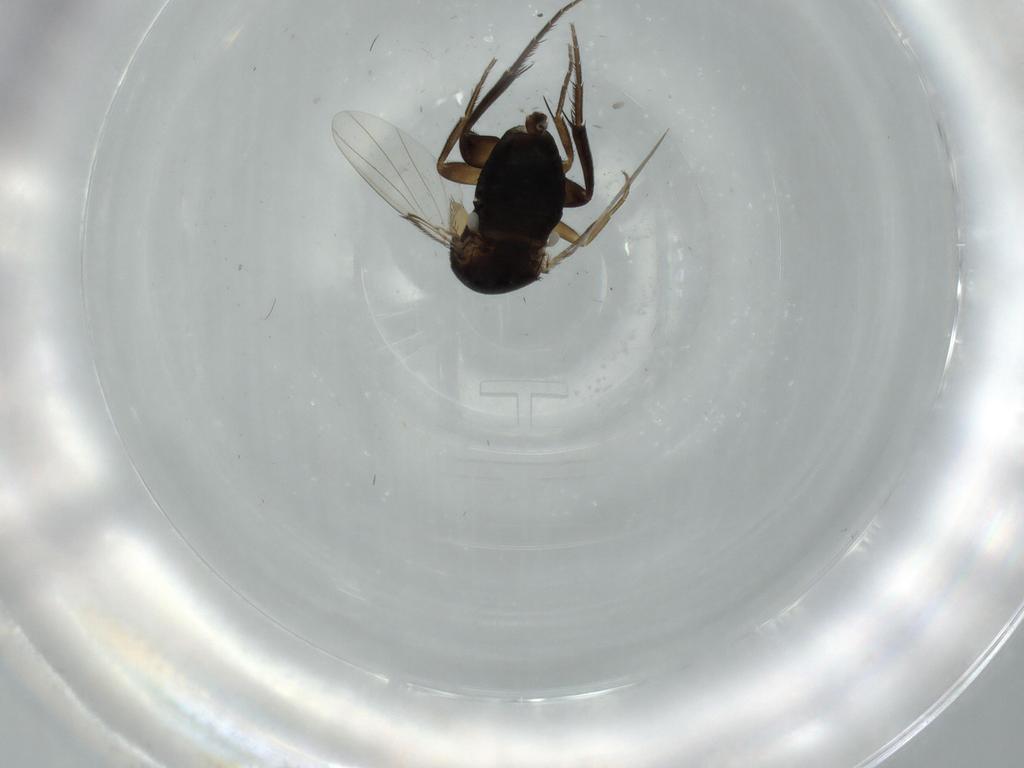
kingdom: Animalia
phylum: Arthropoda
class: Insecta
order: Diptera
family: Phoridae
